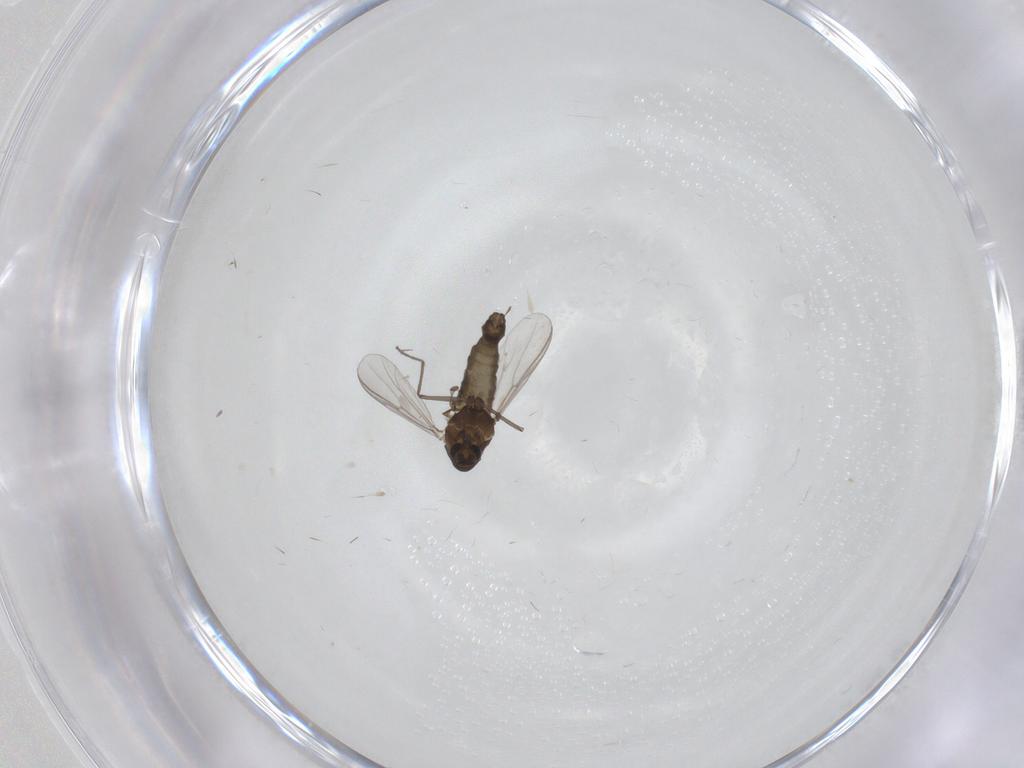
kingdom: Animalia
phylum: Arthropoda
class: Insecta
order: Diptera
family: Chironomidae
